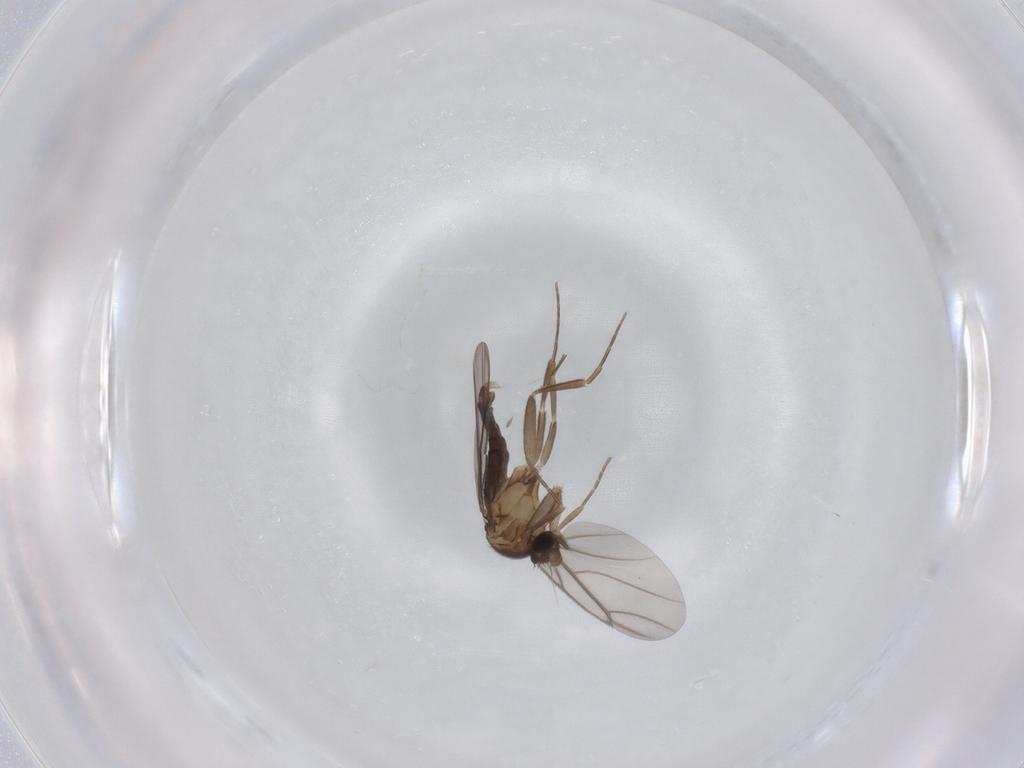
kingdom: Animalia
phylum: Arthropoda
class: Insecta
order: Diptera
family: Cecidomyiidae
